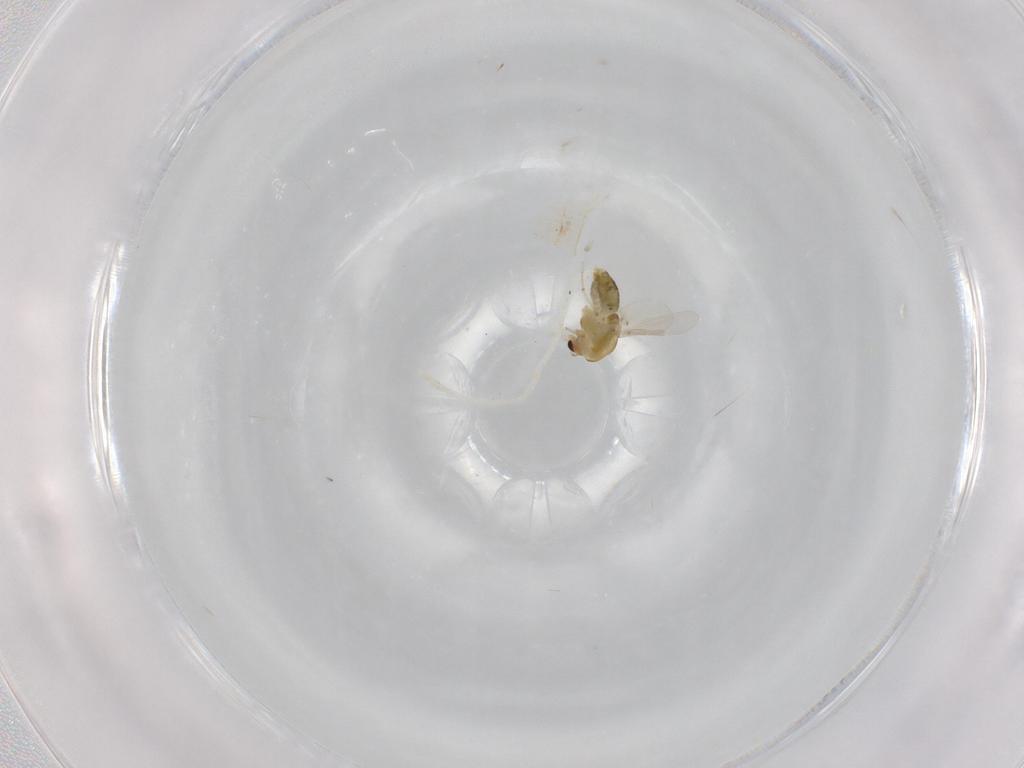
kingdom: Animalia
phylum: Arthropoda
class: Insecta
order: Diptera
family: Chironomidae
